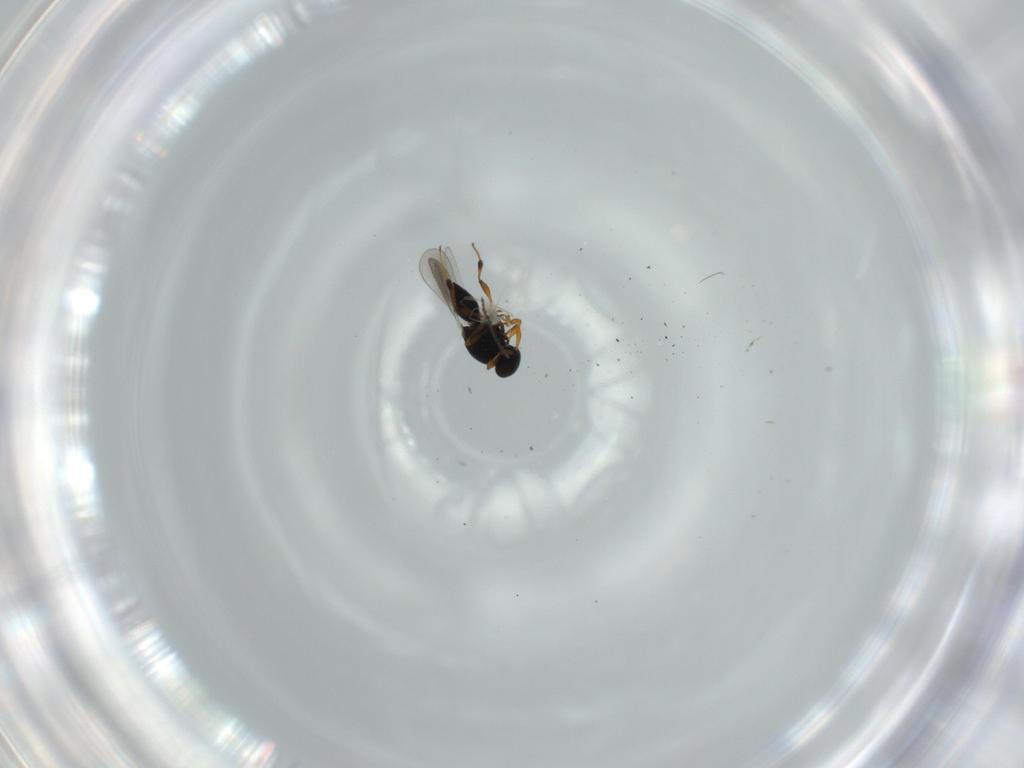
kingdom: Animalia
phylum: Arthropoda
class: Insecta
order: Hymenoptera
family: Platygastridae
